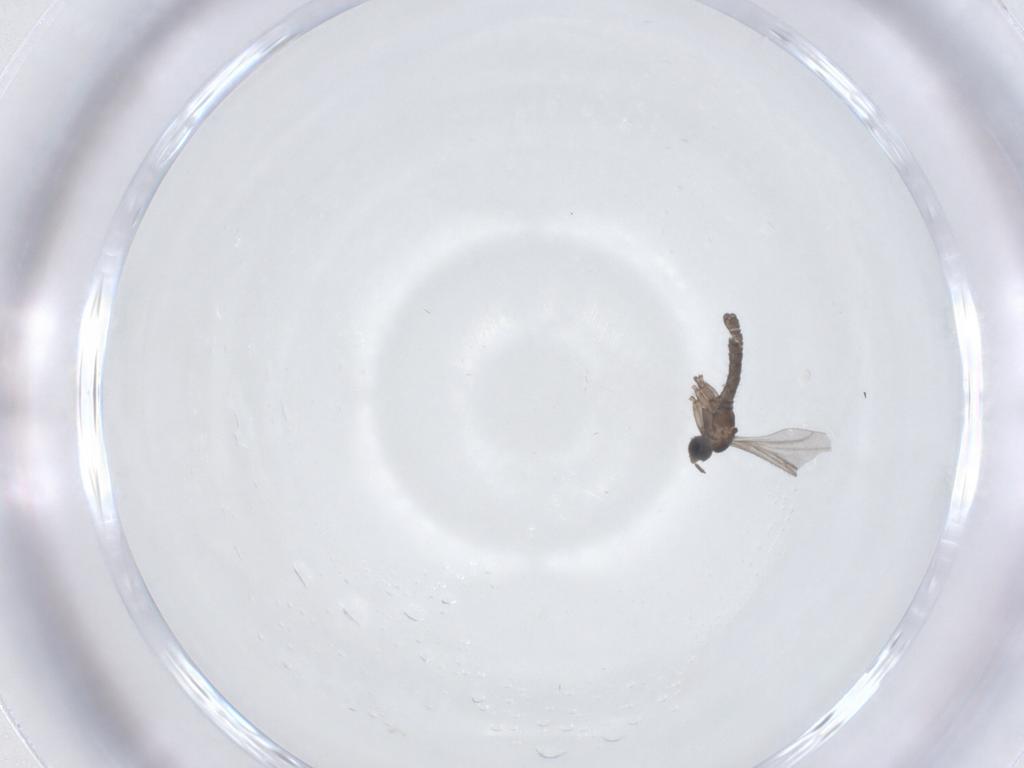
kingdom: Animalia
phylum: Arthropoda
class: Insecta
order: Diptera
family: Sciaridae
